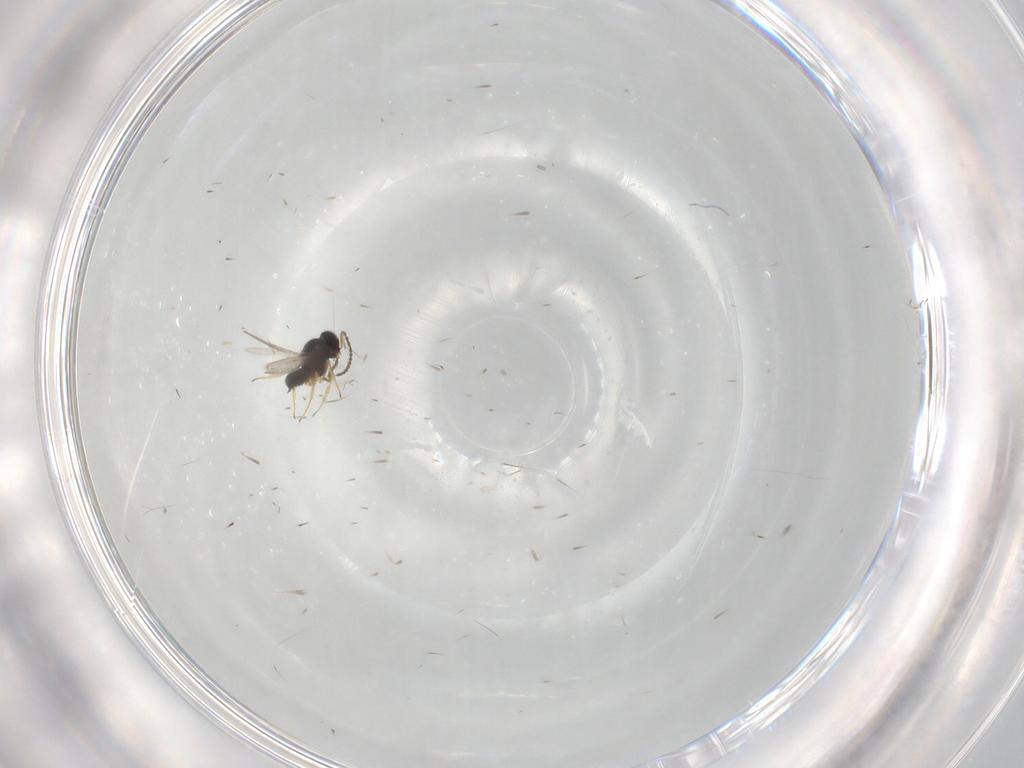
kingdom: Animalia
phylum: Arthropoda
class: Insecta
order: Hymenoptera
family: Scelionidae
